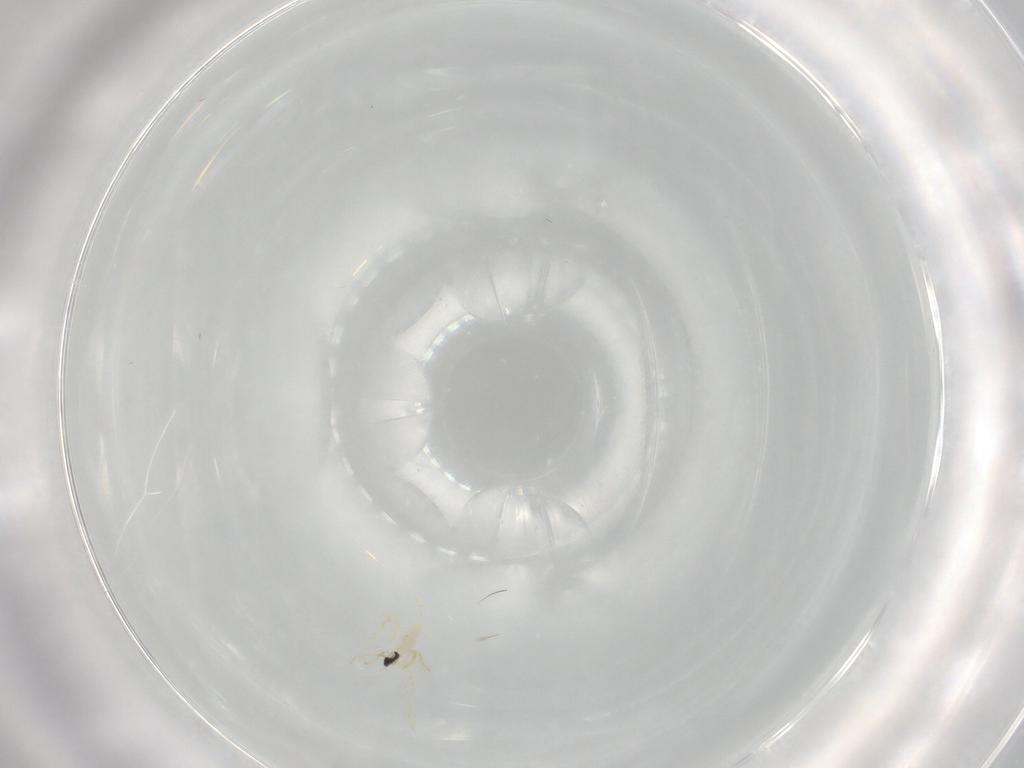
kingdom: Animalia
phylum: Arthropoda
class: Insecta
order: Diptera
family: Cecidomyiidae
